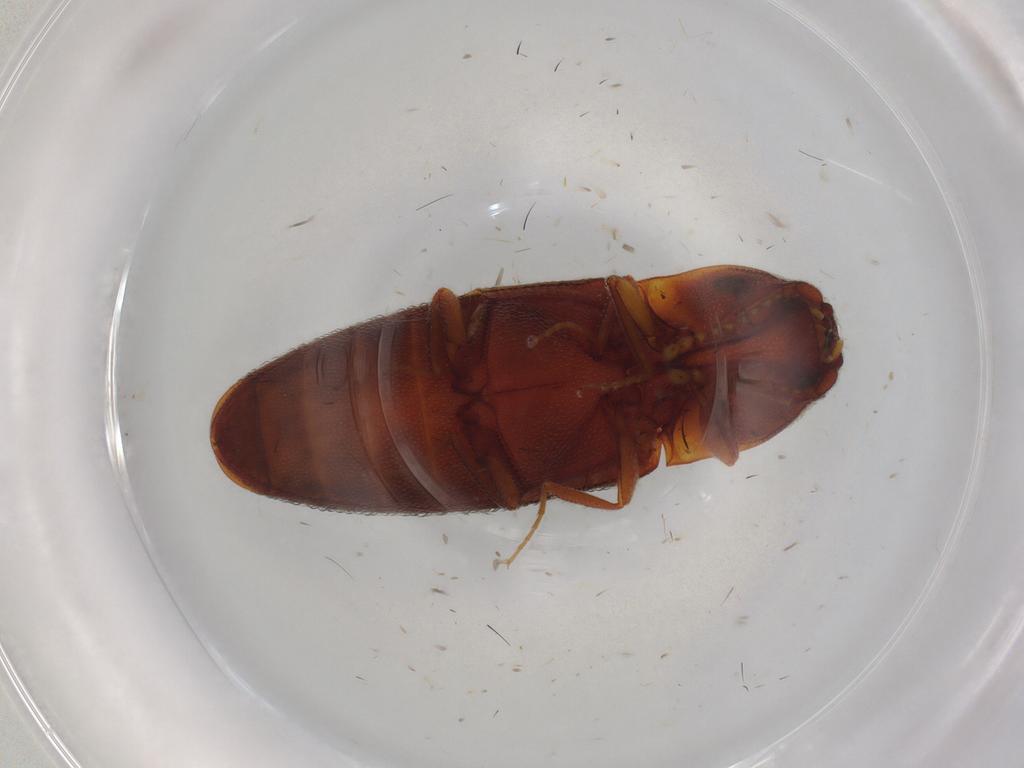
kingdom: Animalia
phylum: Arthropoda
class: Insecta
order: Coleoptera
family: Elateridae
